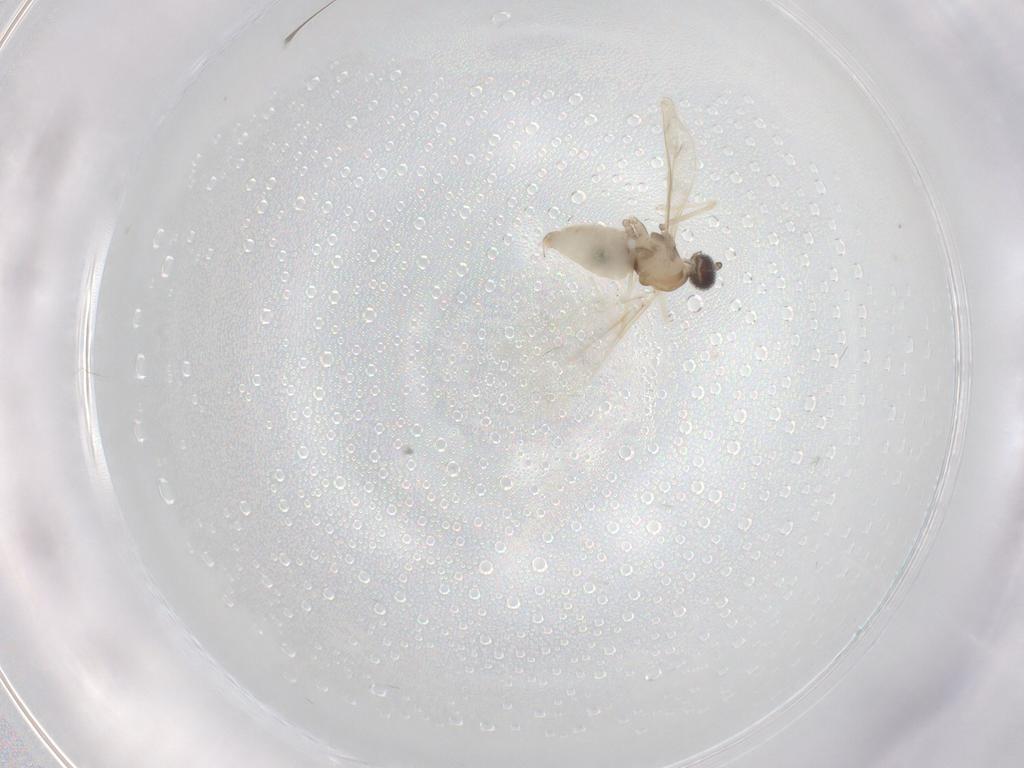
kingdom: Animalia
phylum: Arthropoda
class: Insecta
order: Diptera
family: Cecidomyiidae
